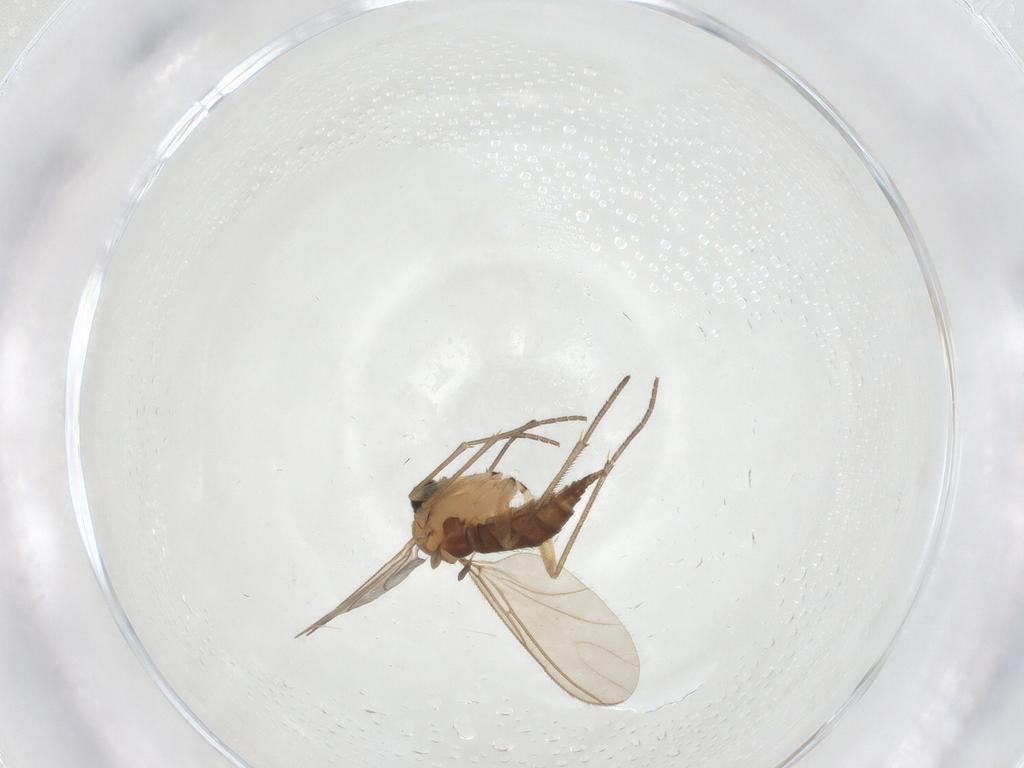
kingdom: Animalia
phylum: Arthropoda
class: Insecta
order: Diptera
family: Sciaridae
